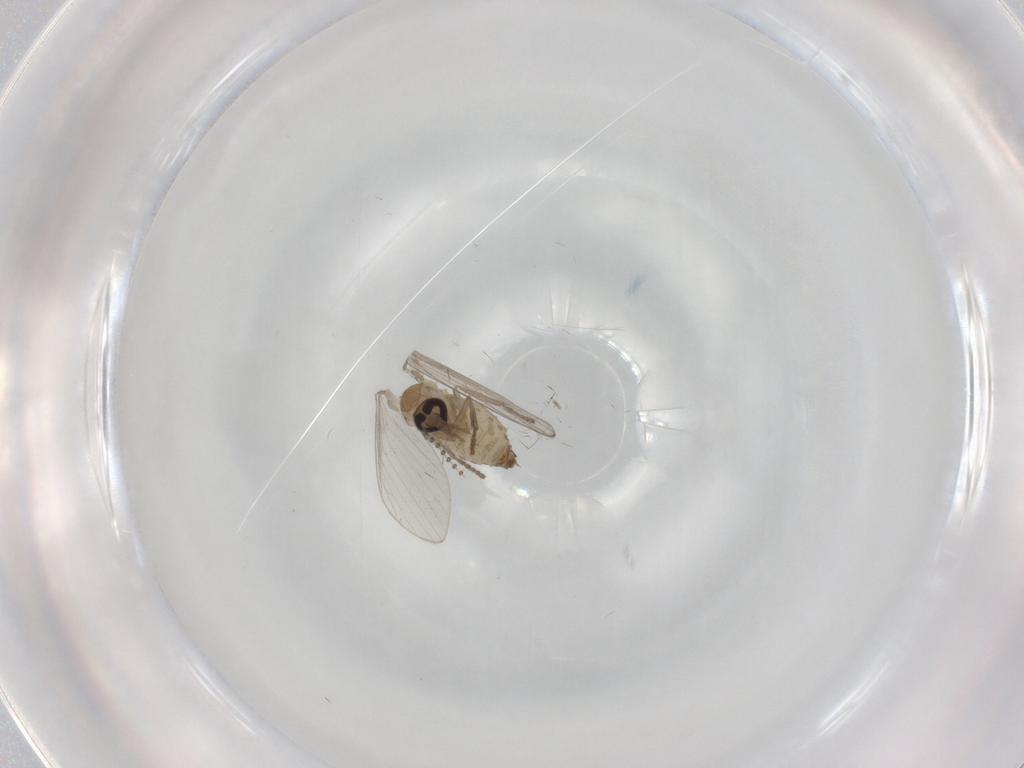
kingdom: Animalia
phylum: Arthropoda
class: Insecta
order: Diptera
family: Psychodidae
